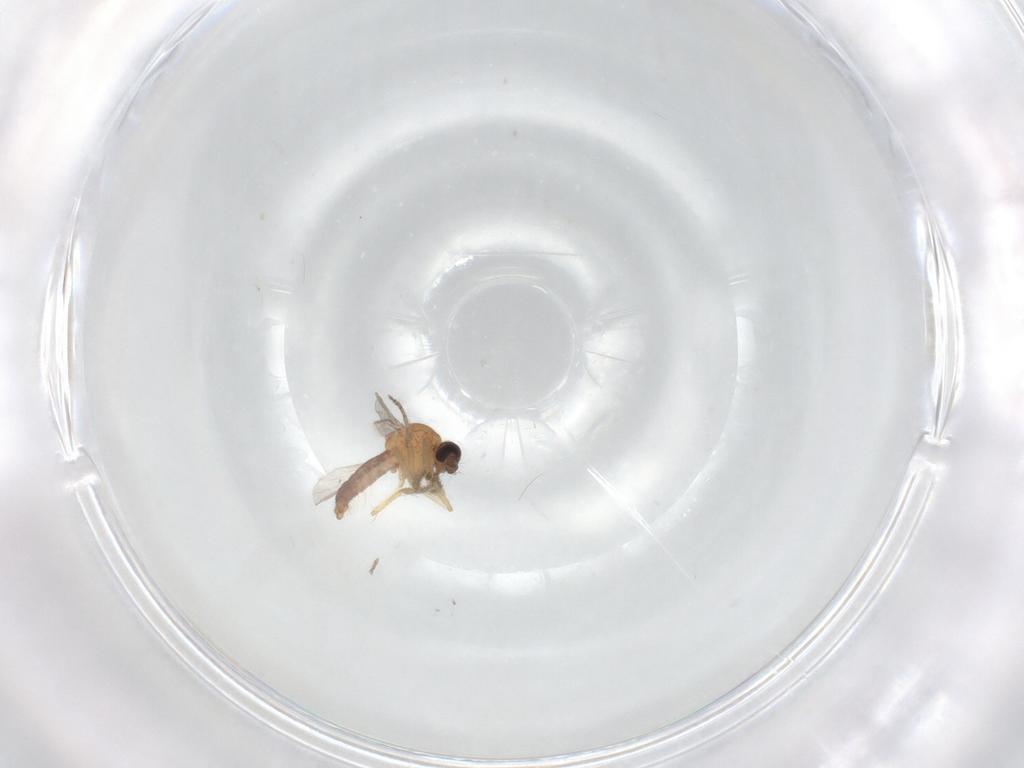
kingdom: Animalia
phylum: Arthropoda
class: Insecta
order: Diptera
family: Ceratopogonidae
